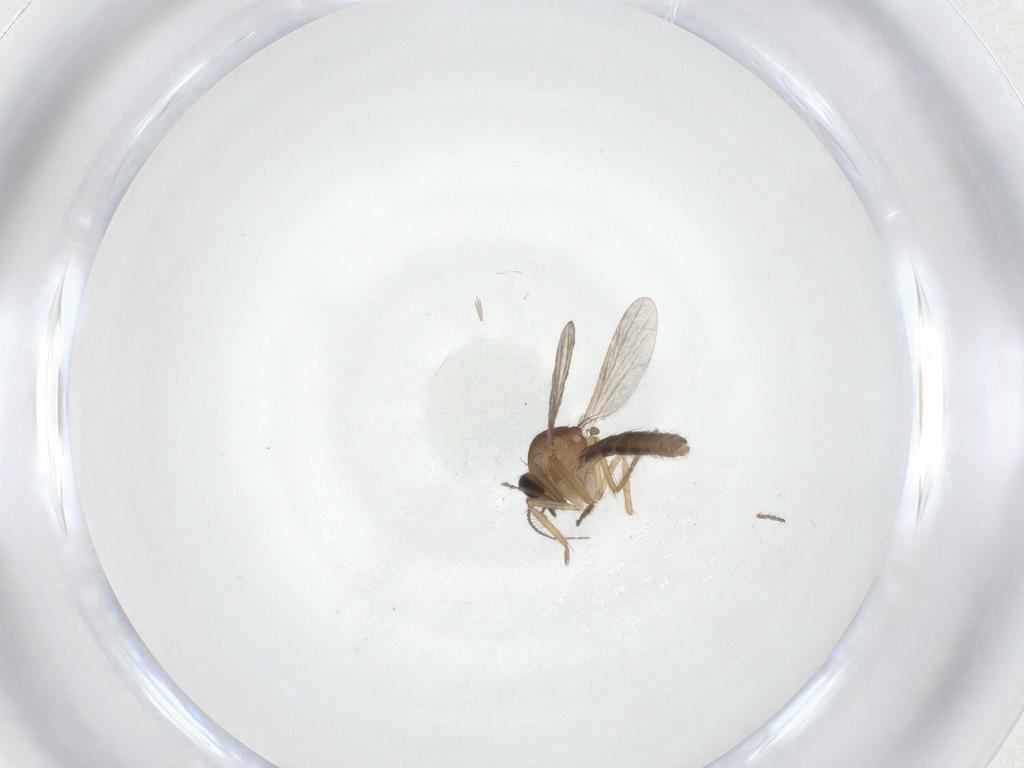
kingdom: Animalia
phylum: Arthropoda
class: Insecta
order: Diptera
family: Ceratopogonidae
